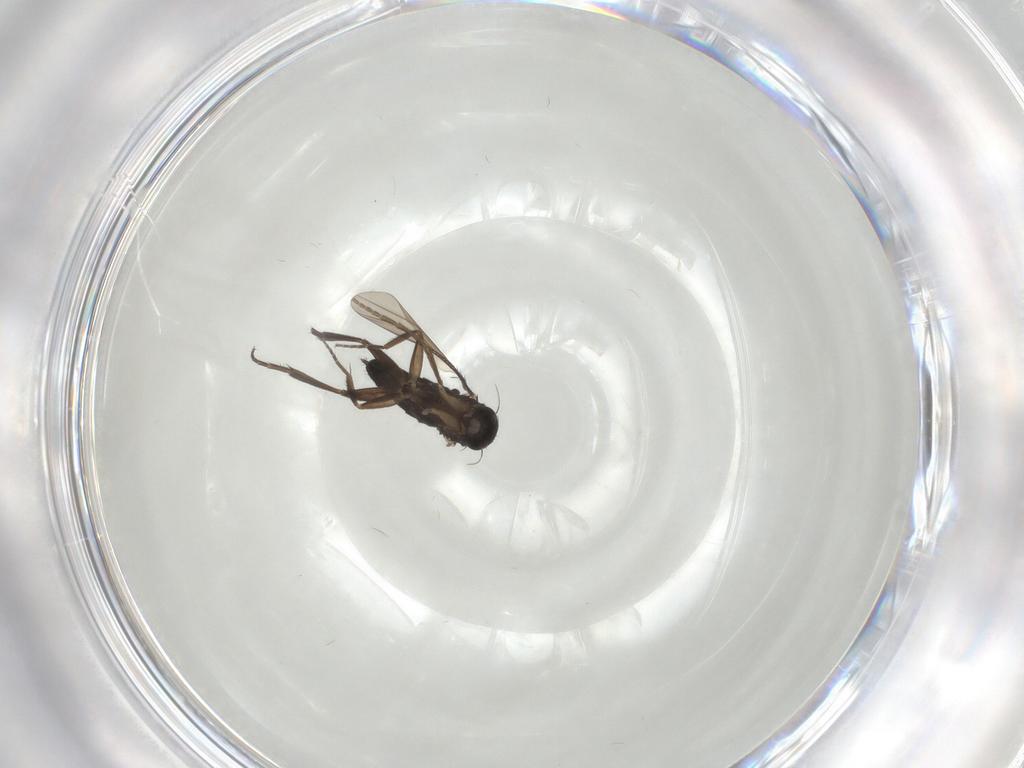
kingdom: Animalia
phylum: Arthropoda
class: Insecta
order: Diptera
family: Phoridae
